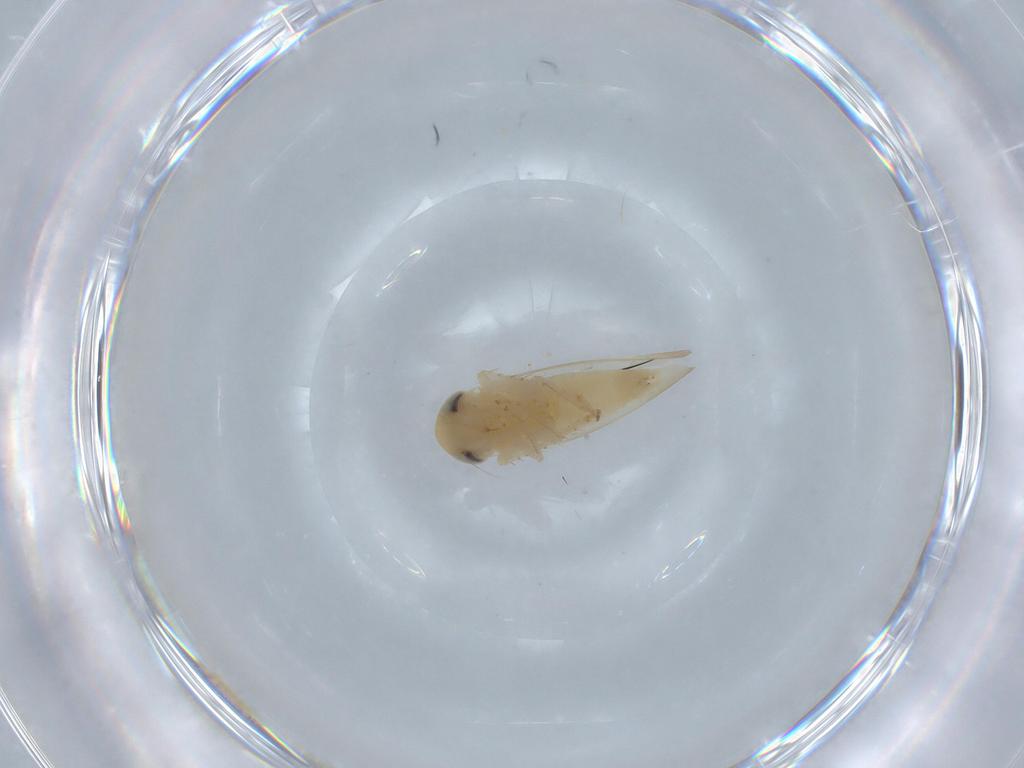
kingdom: Animalia
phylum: Arthropoda
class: Insecta
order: Hemiptera
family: Cicadellidae
